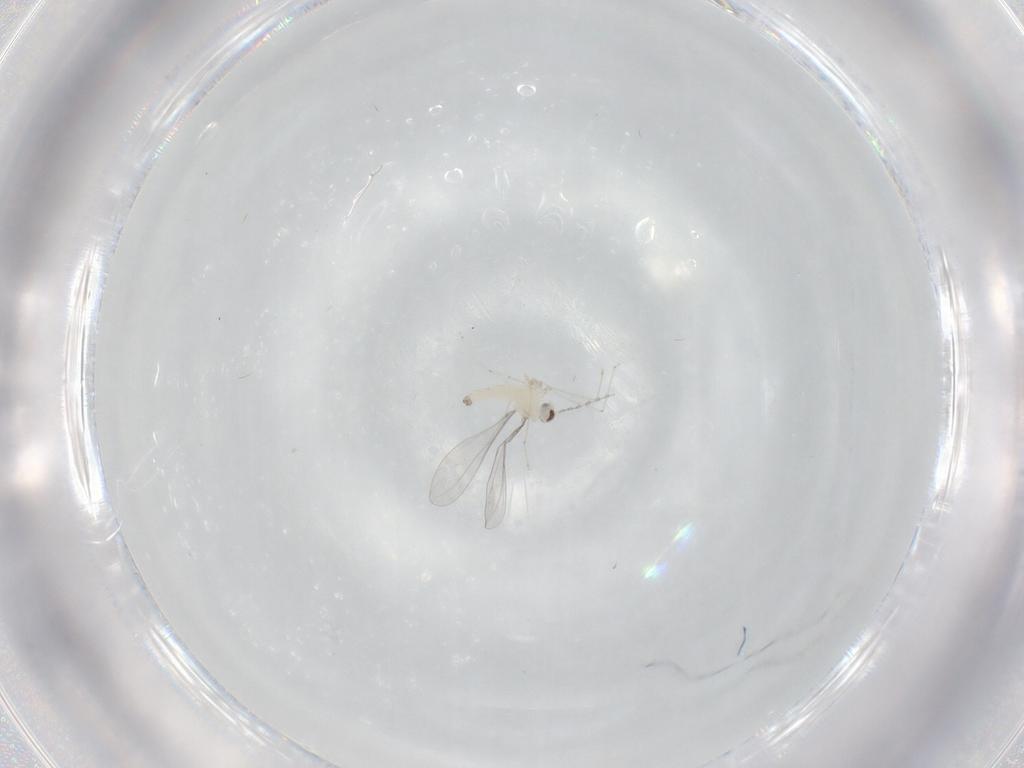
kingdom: Animalia
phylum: Arthropoda
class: Insecta
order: Diptera
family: Cecidomyiidae
